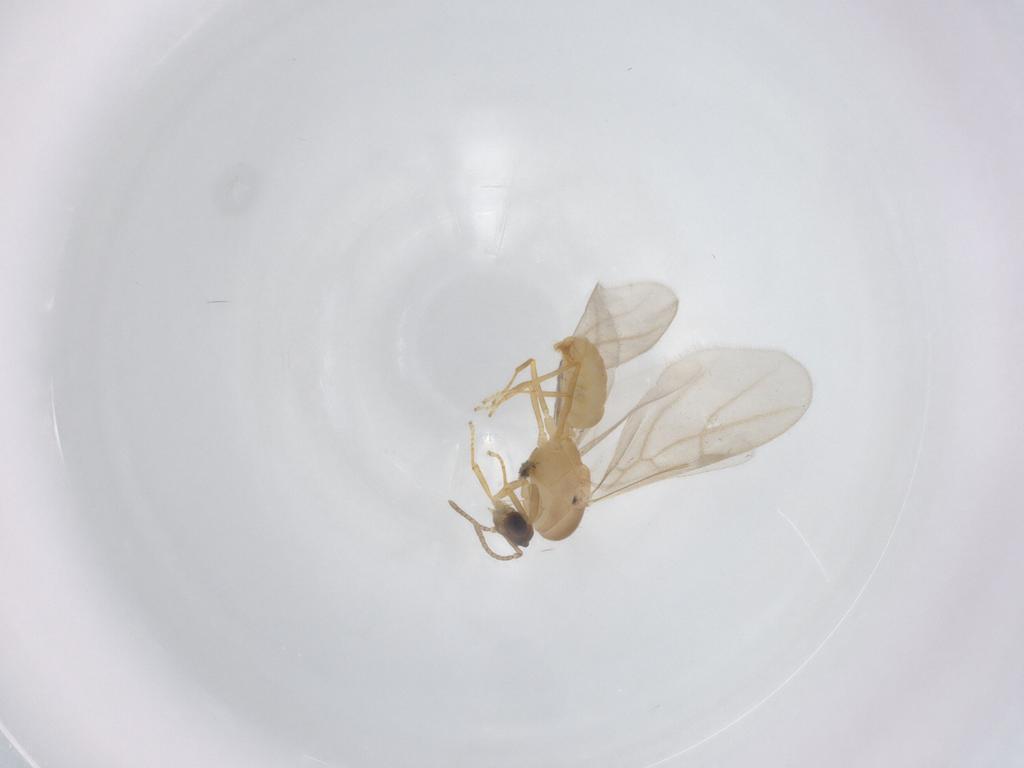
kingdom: Animalia
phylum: Arthropoda
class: Insecta
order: Hymenoptera
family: Formicidae
